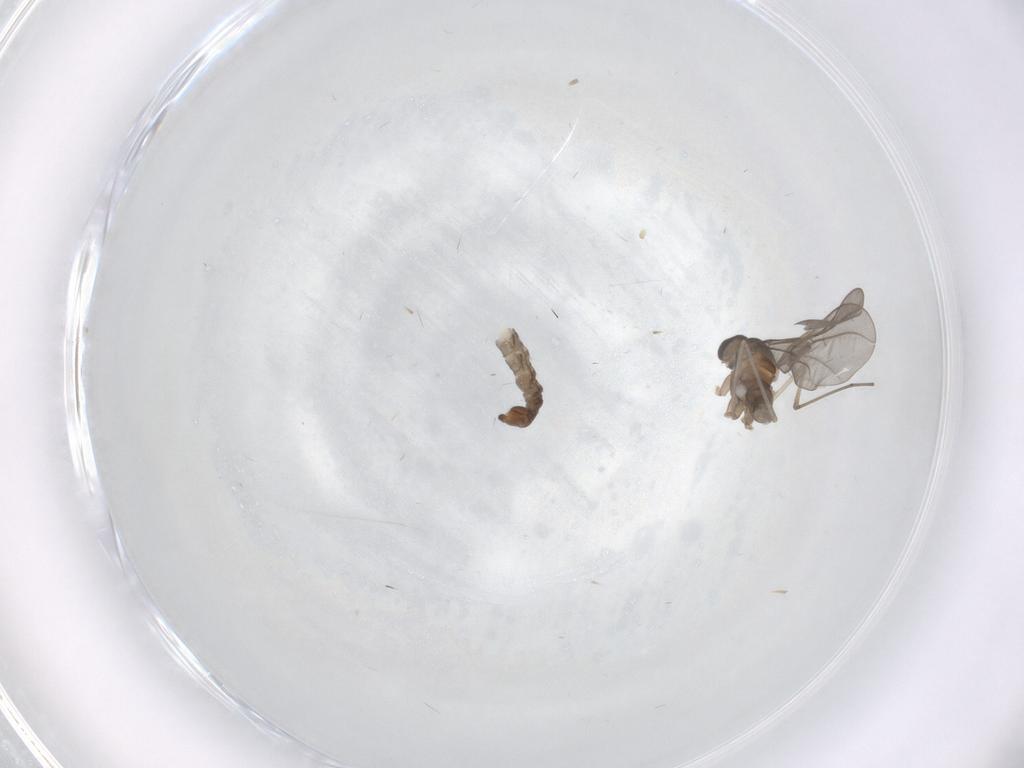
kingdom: Animalia
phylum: Arthropoda
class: Insecta
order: Diptera
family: Cecidomyiidae
